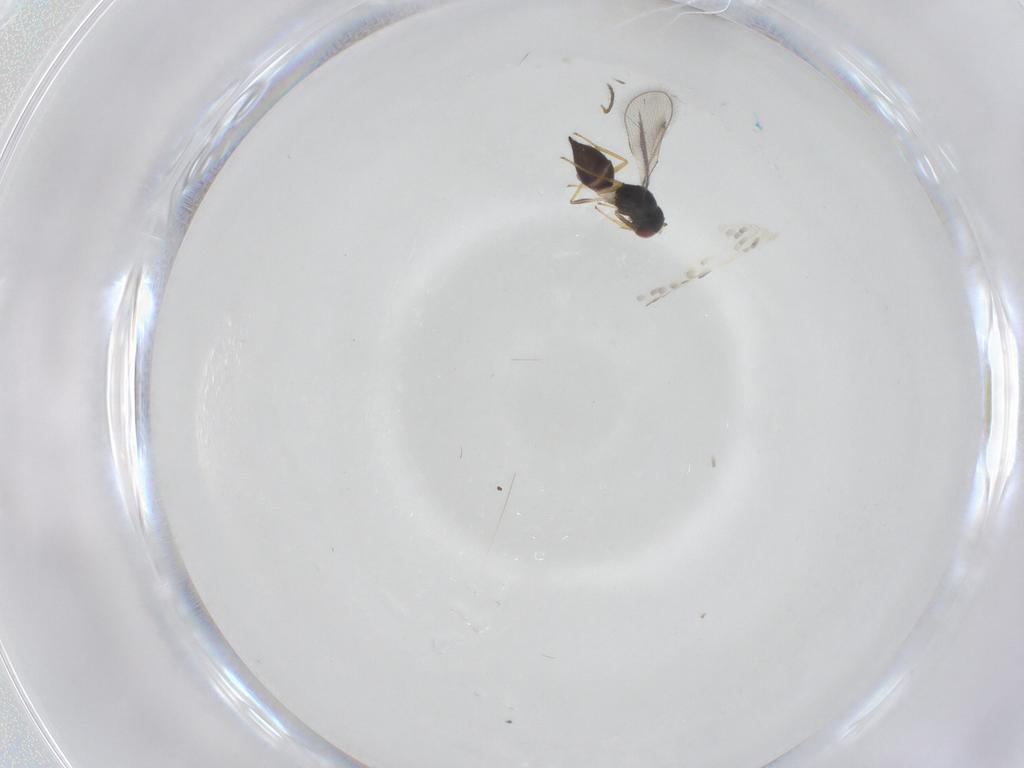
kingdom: Animalia
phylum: Arthropoda
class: Insecta
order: Hymenoptera
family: Eulophidae
